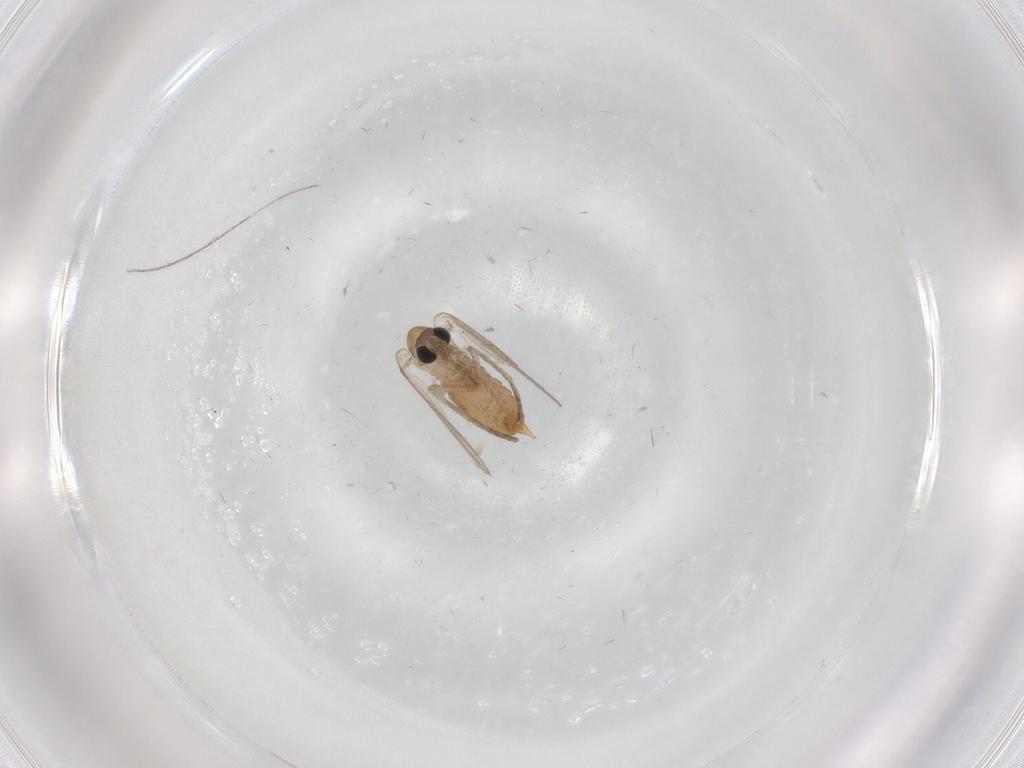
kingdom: Animalia
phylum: Arthropoda
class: Insecta
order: Diptera
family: Psychodidae
